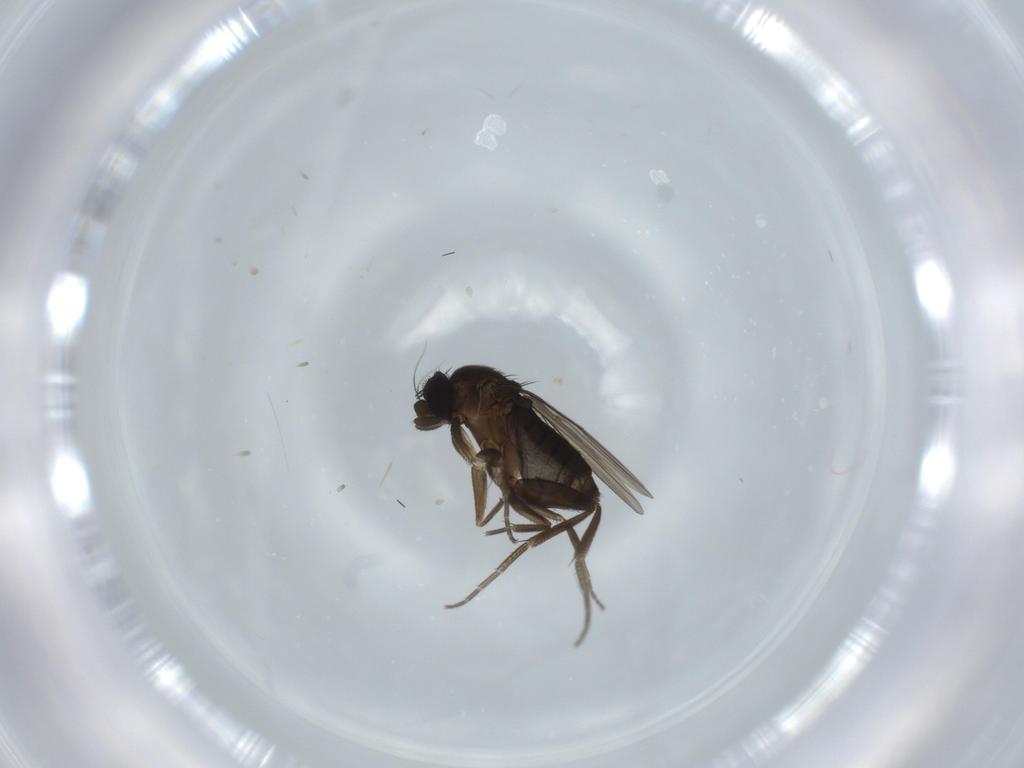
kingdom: Animalia
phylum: Arthropoda
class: Insecta
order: Diptera
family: Phoridae
